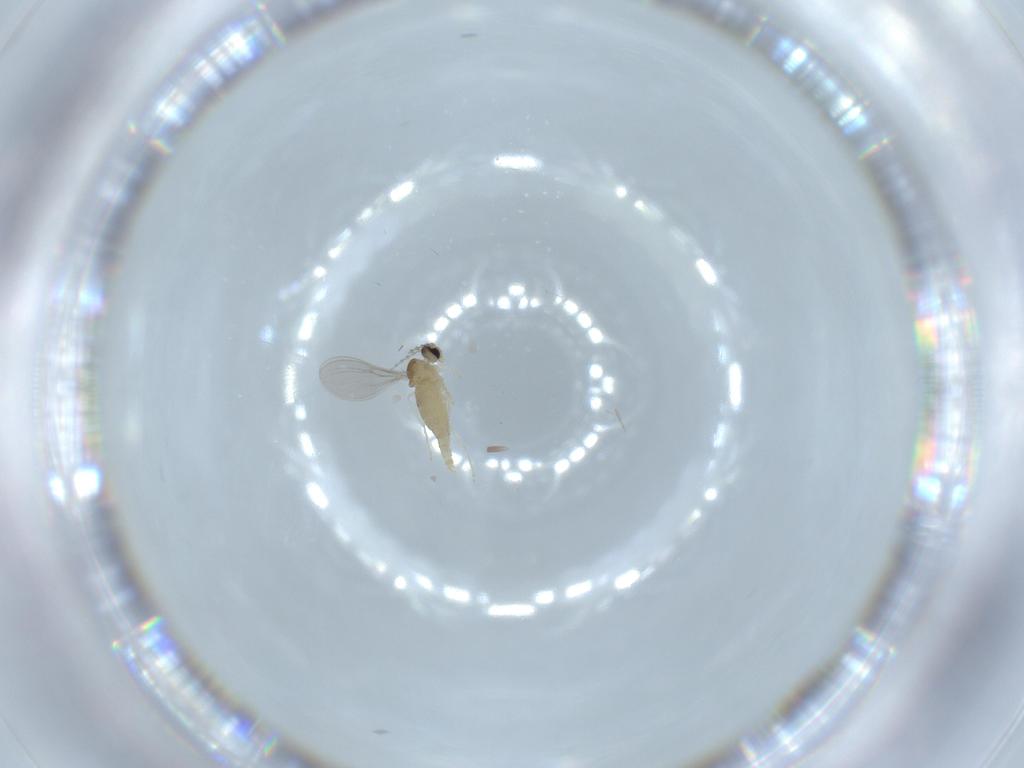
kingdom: Animalia
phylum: Arthropoda
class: Insecta
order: Diptera
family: Cecidomyiidae
